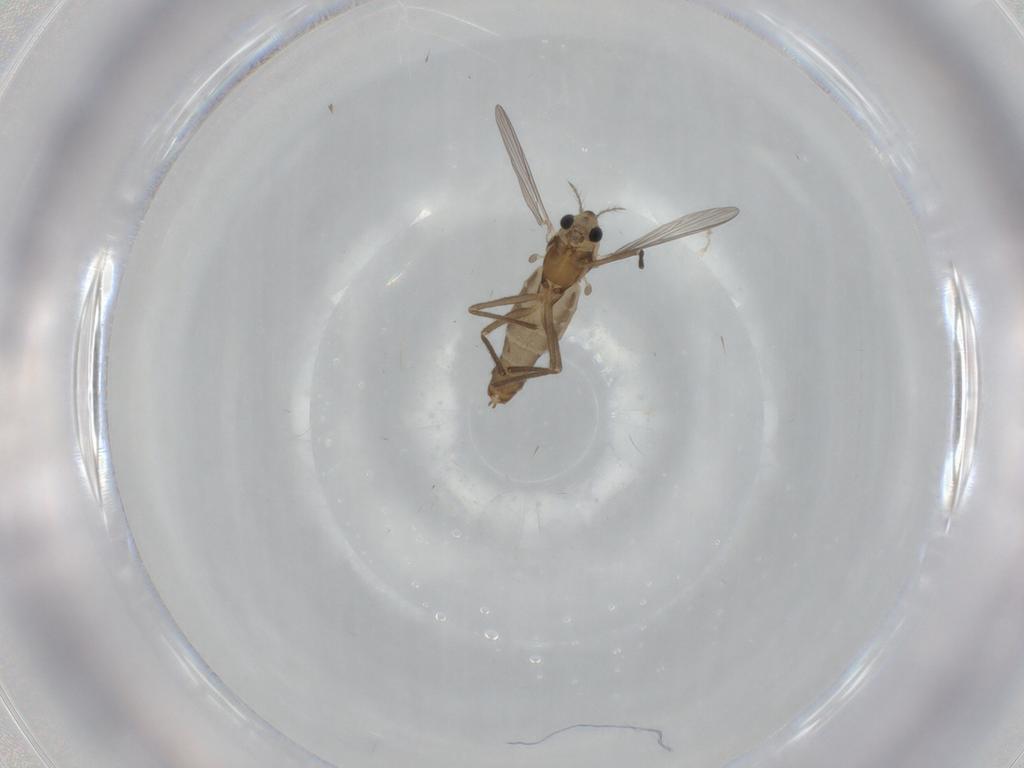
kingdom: Animalia
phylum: Arthropoda
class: Insecta
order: Diptera
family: Chironomidae
